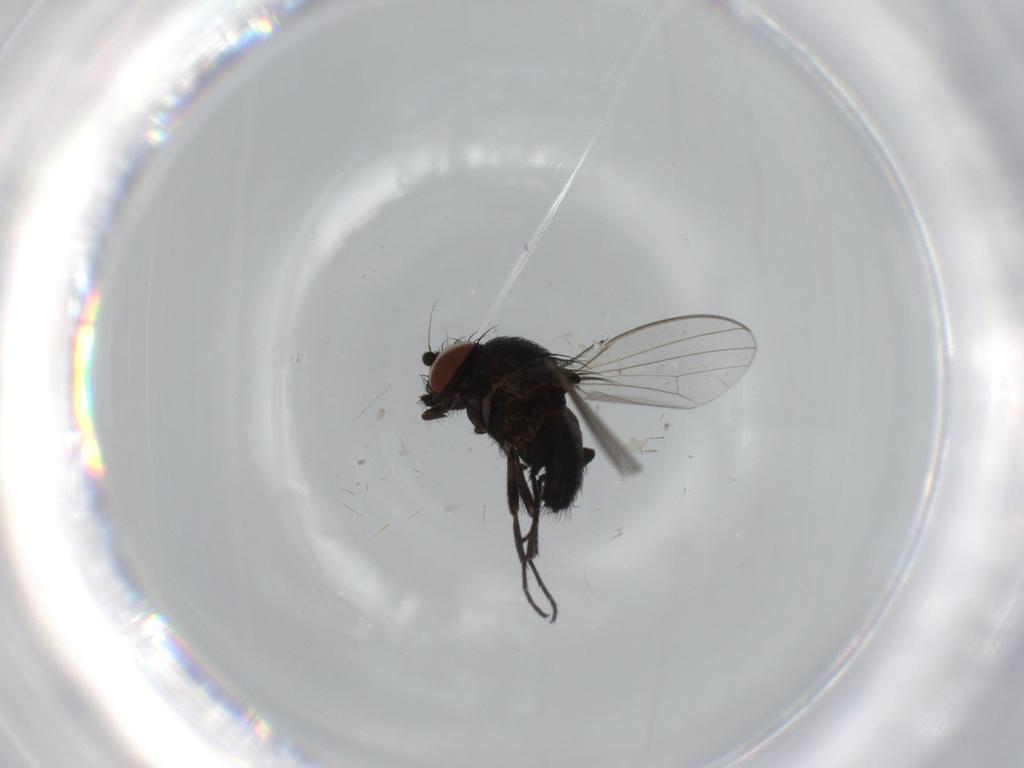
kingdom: Animalia
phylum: Arthropoda
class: Insecta
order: Diptera
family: Milichiidae
